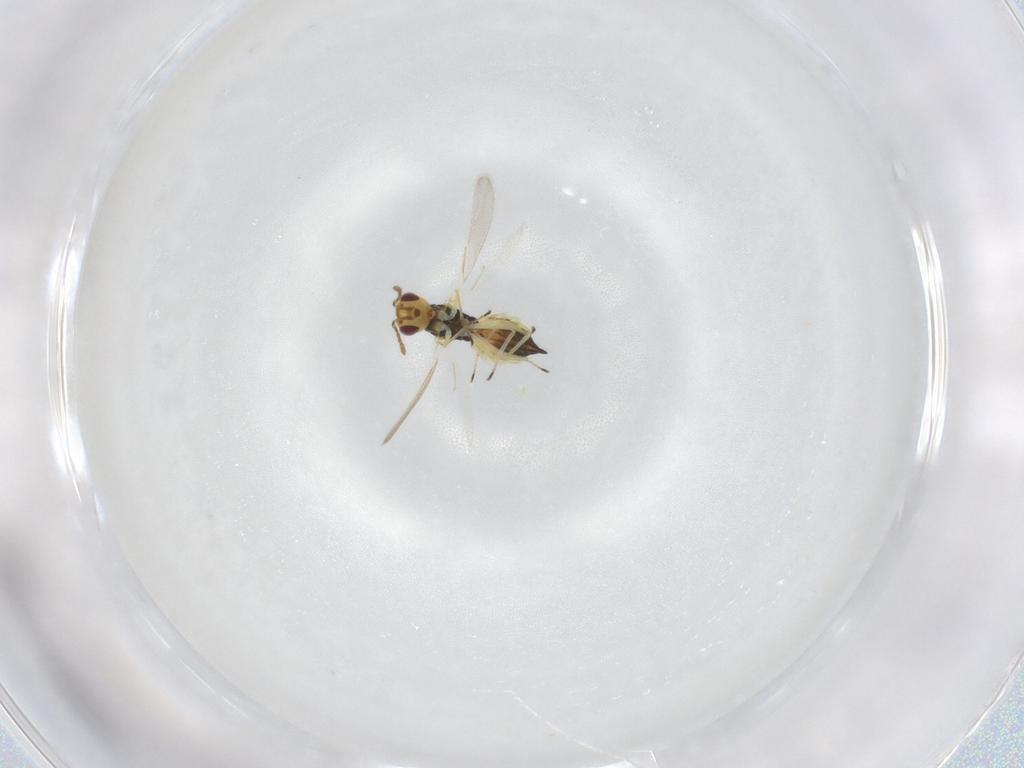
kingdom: Animalia
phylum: Arthropoda
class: Insecta
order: Hymenoptera
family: Eulophidae
